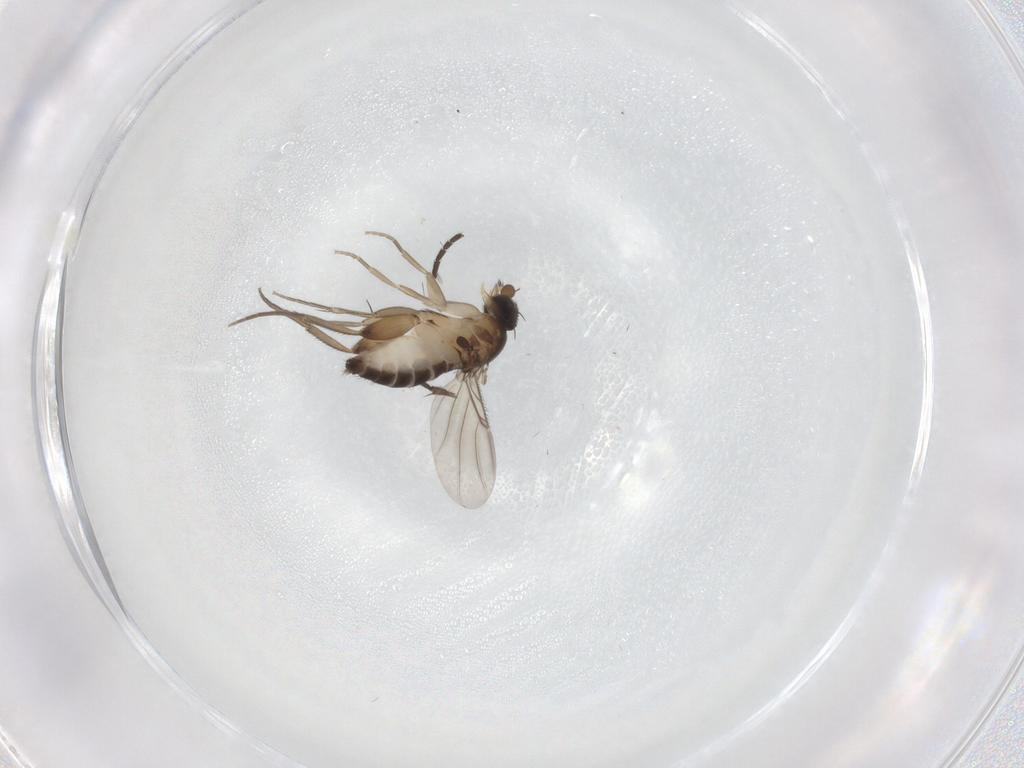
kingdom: Animalia
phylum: Arthropoda
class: Insecta
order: Diptera
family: Phoridae
